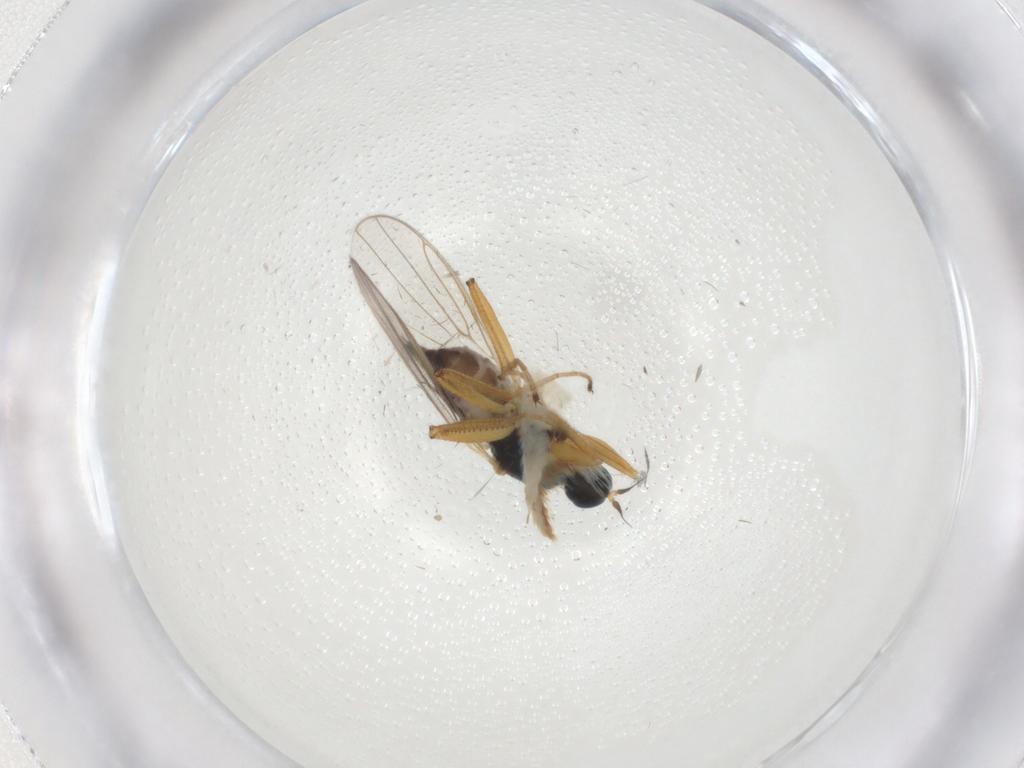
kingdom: Animalia
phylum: Arthropoda
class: Insecta
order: Diptera
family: Hybotidae
